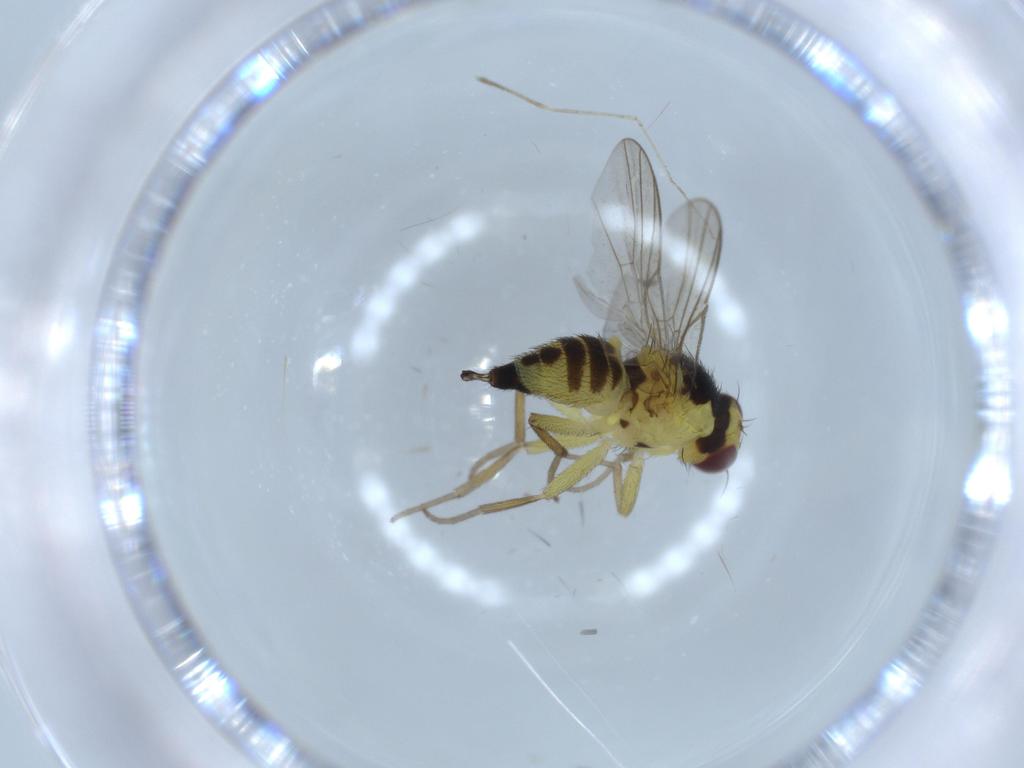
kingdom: Animalia
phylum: Arthropoda
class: Insecta
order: Diptera
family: Agromyzidae
